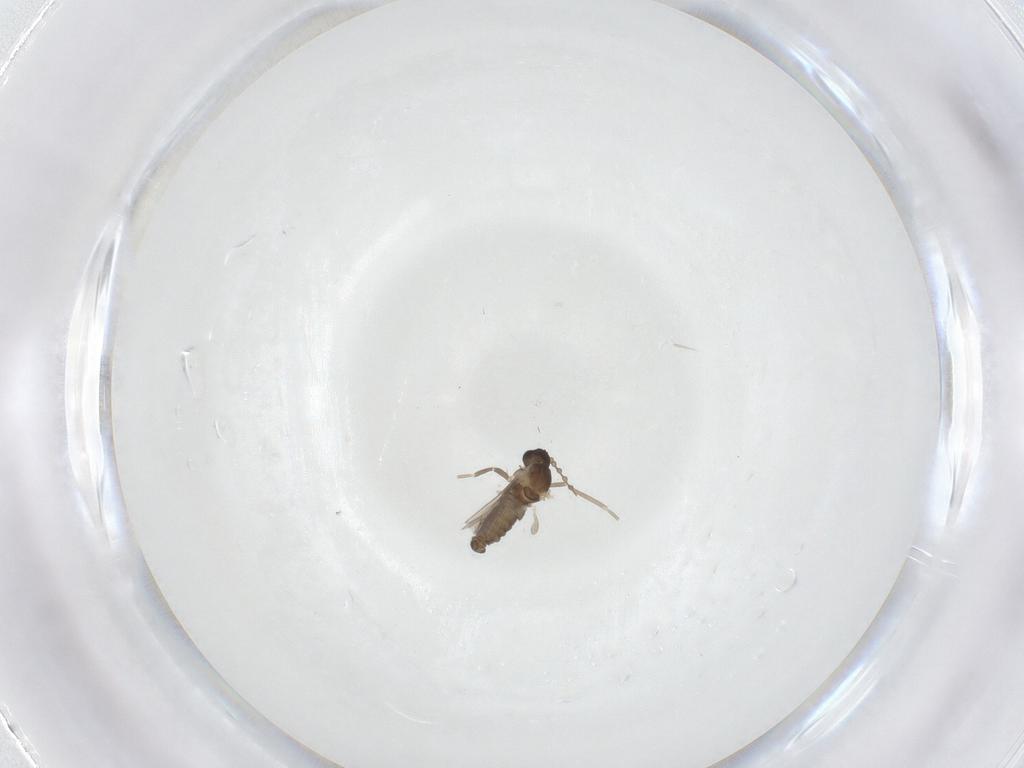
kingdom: Animalia
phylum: Arthropoda
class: Insecta
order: Diptera
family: Cecidomyiidae
